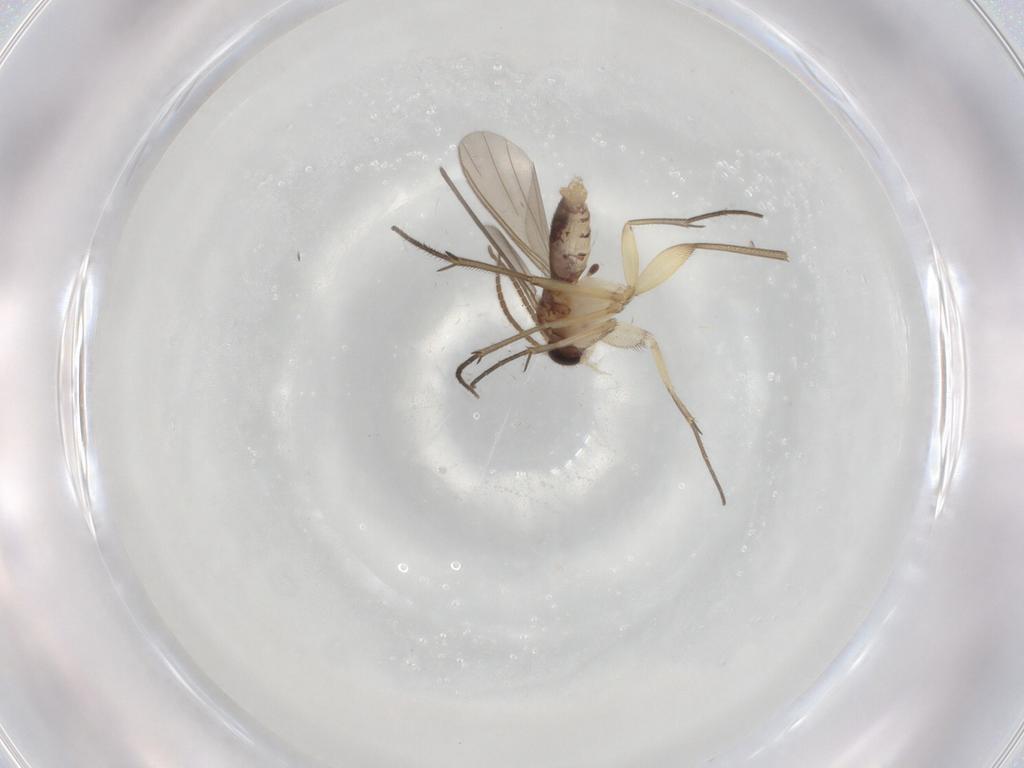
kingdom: Animalia
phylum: Arthropoda
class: Insecta
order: Diptera
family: Mycetophilidae
